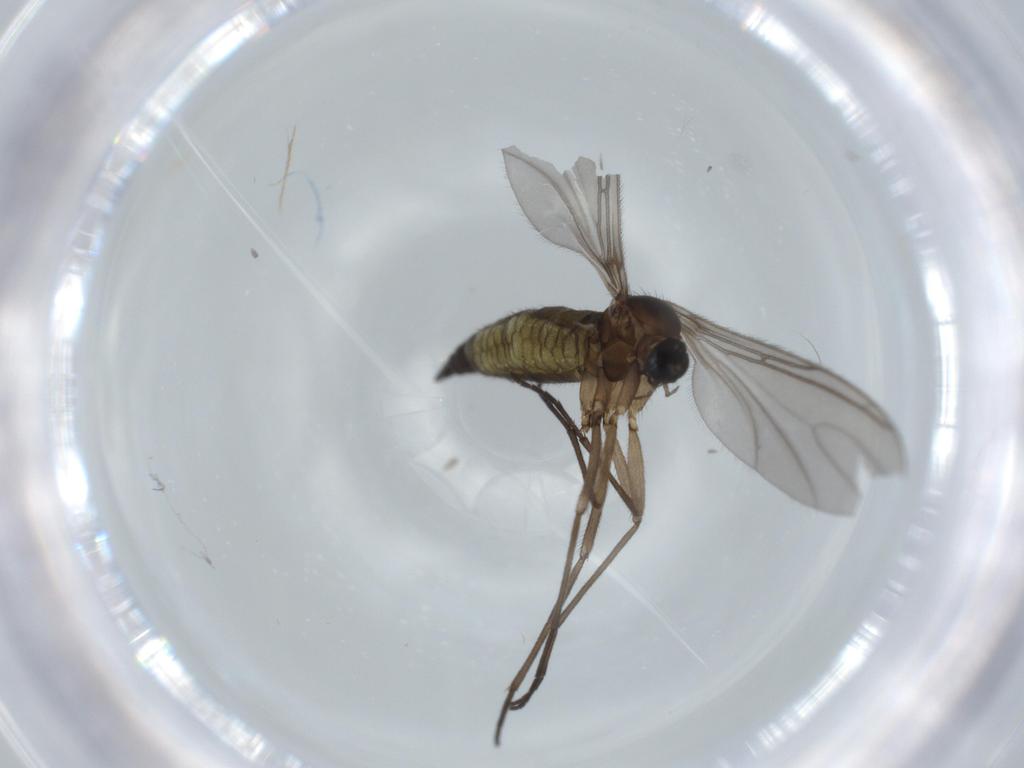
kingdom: Animalia
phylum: Arthropoda
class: Insecta
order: Diptera
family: Sciaridae
